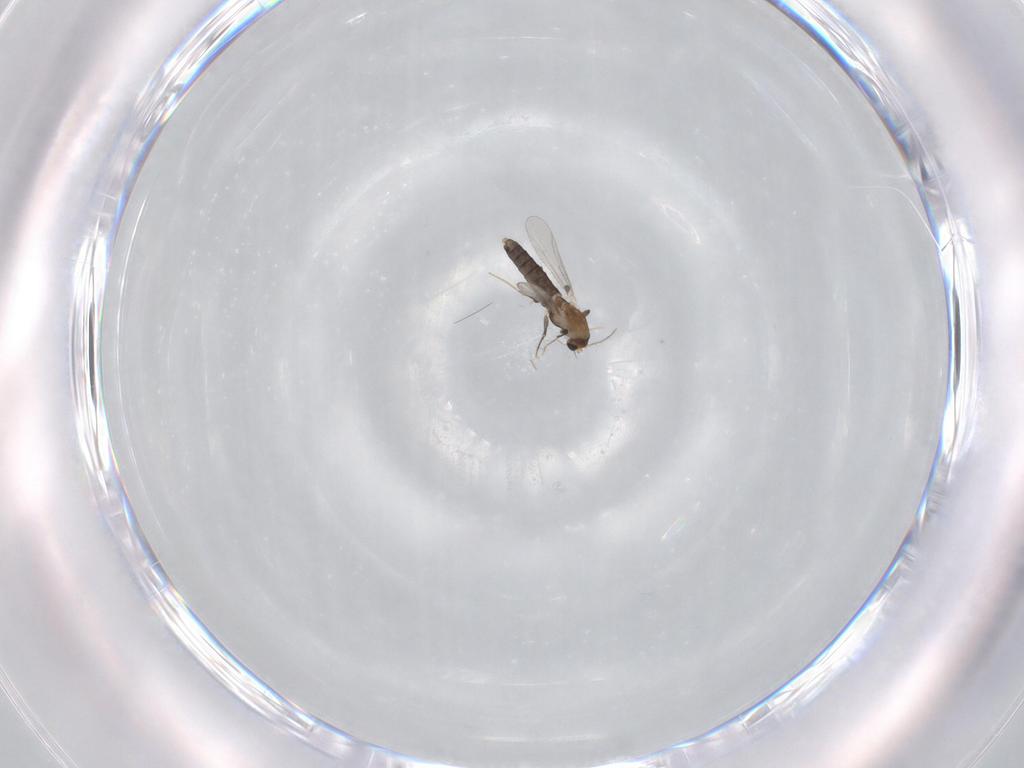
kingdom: Animalia
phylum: Arthropoda
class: Insecta
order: Diptera
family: Chironomidae
